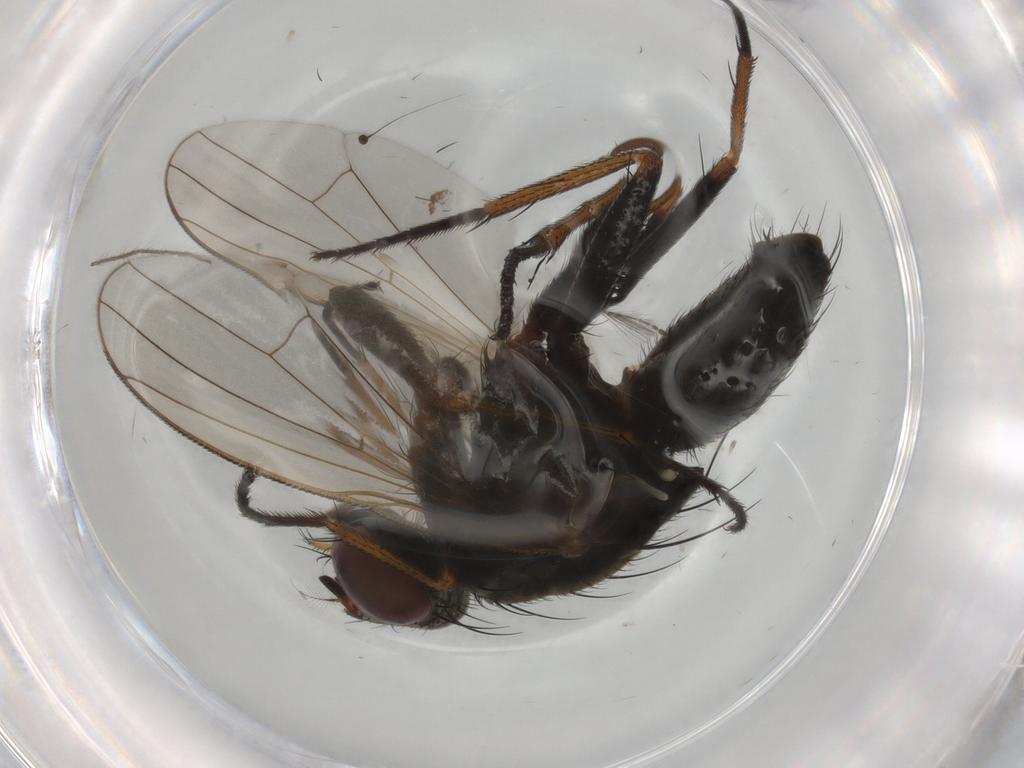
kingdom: Animalia
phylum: Arthropoda
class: Insecta
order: Diptera
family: Muscidae
